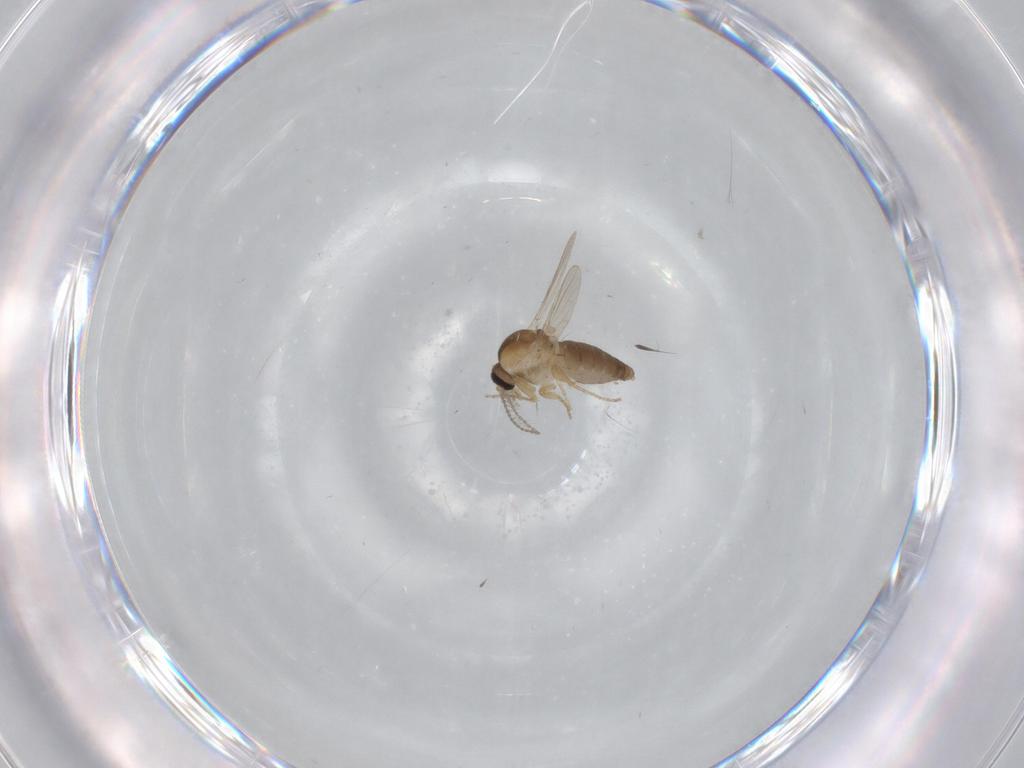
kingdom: Animalia
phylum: Arthropoda
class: Insecta
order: Diptera
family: Ceratopogonidae
